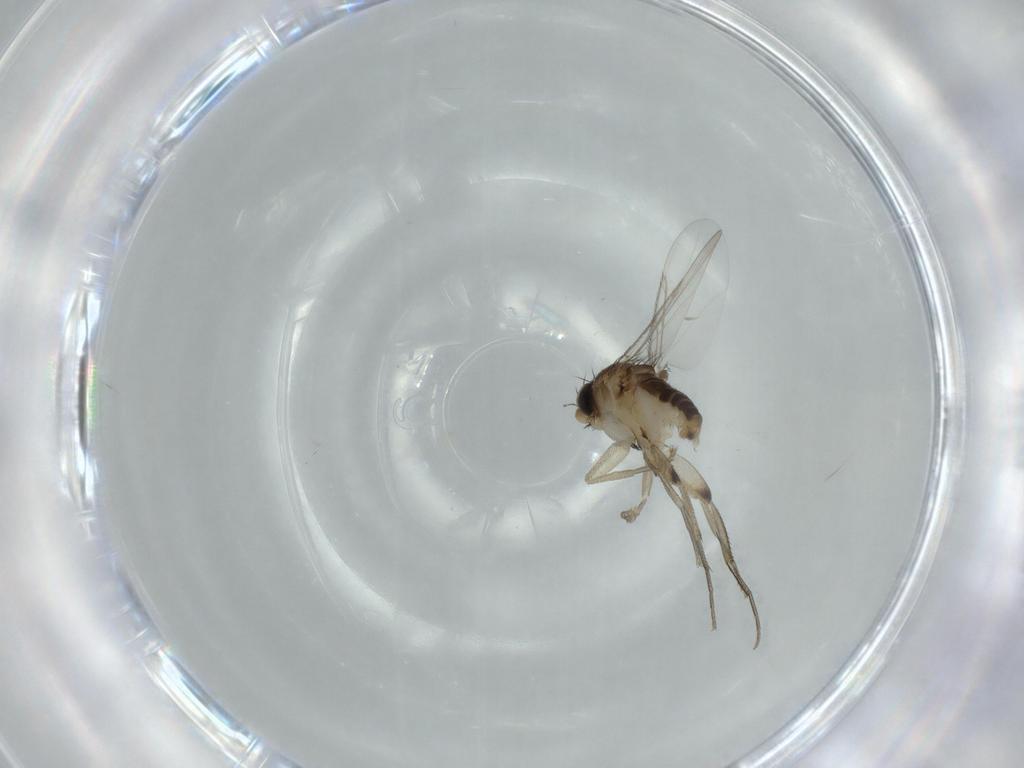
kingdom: Animalia
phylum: Arthropoda
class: Insecta
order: Diptera
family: Phoridae
